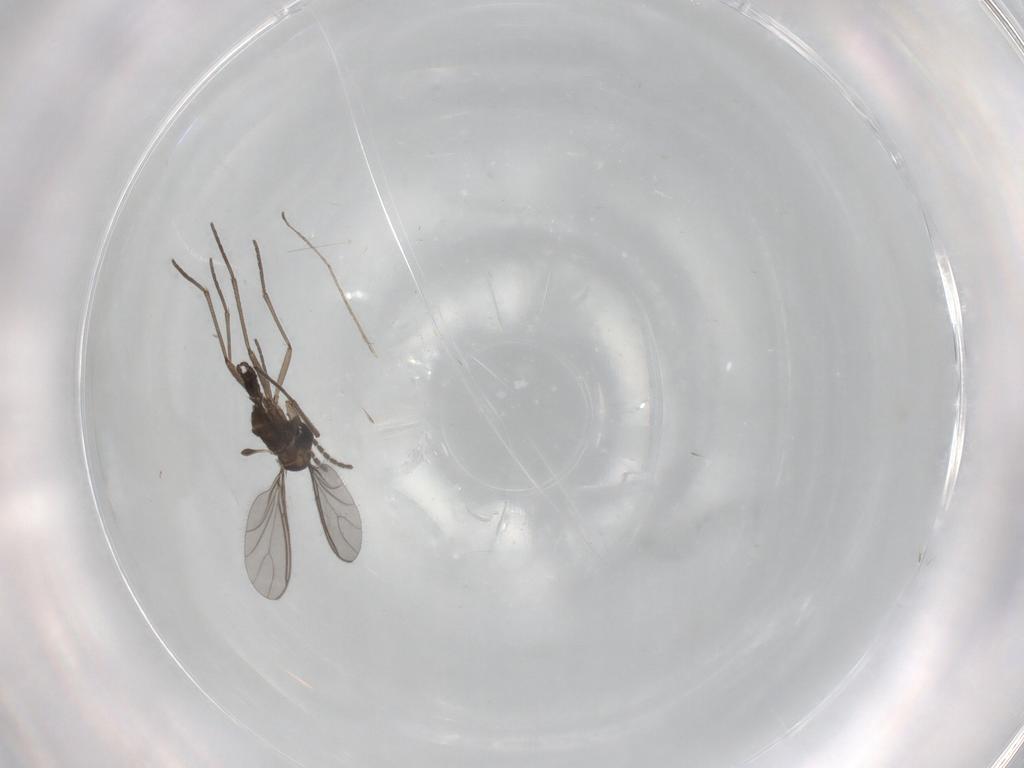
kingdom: Animalia
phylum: Arthropoda
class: Insecta
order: Diptera
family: Sciaridae
